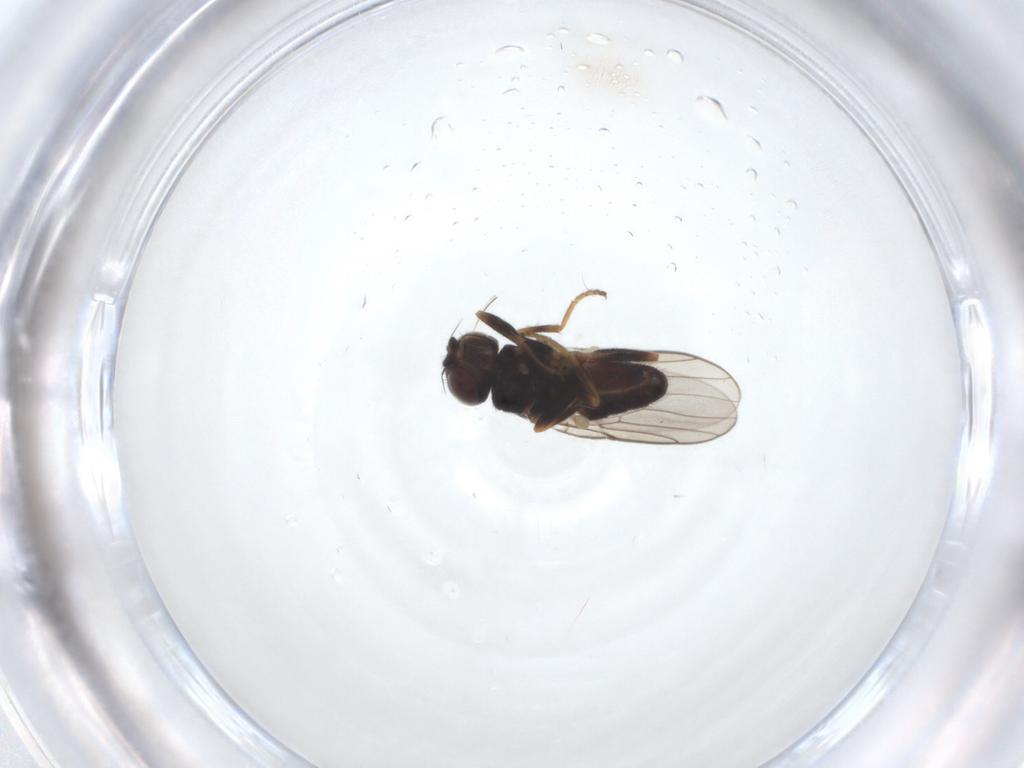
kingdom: Animalia
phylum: Arthropoda
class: Insecta
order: Diptera
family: Chloropidae
